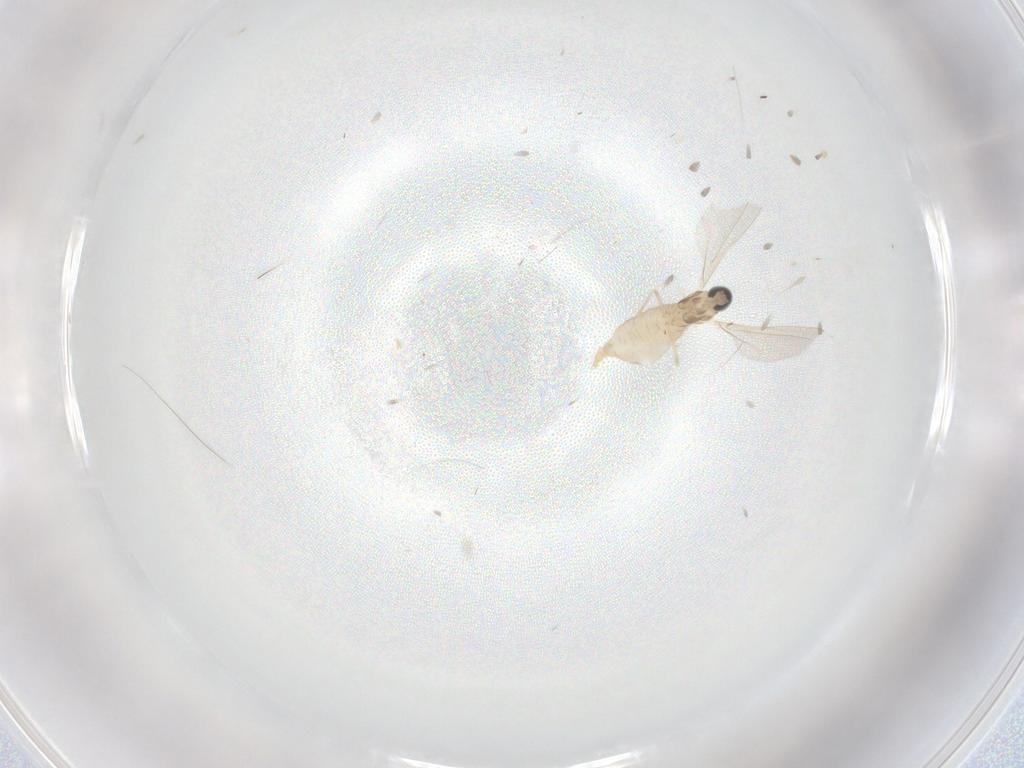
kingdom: Animalia
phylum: Arthropoda
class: Insecta
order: Diptera
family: Cecidomyiidae
